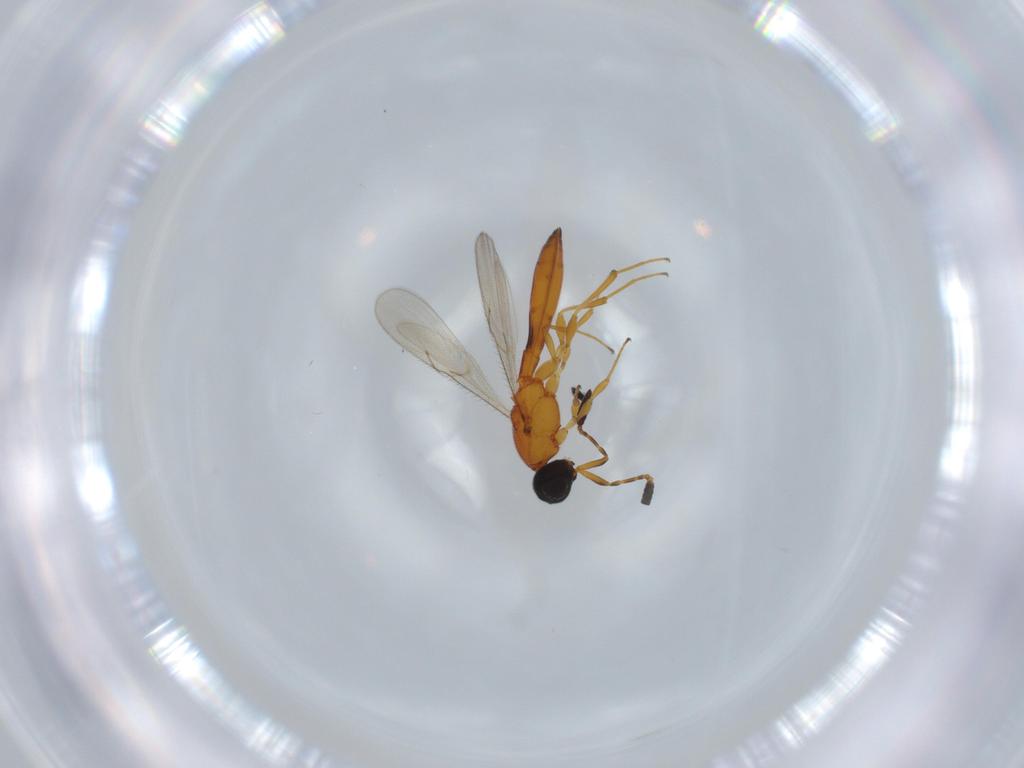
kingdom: Animalia
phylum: Arthropoda
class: Insecta
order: Hymenoptera
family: Scelionidae
